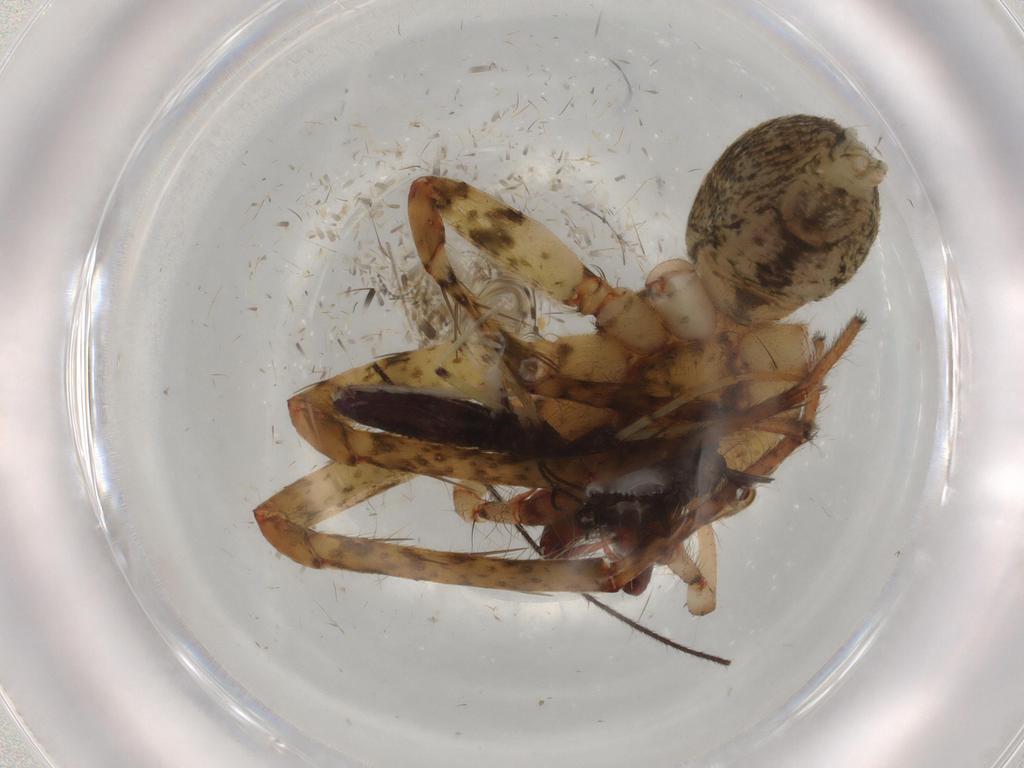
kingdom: Animalia
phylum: Arthropoda
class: Arachnida
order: Araneae
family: Anyphaenidae
